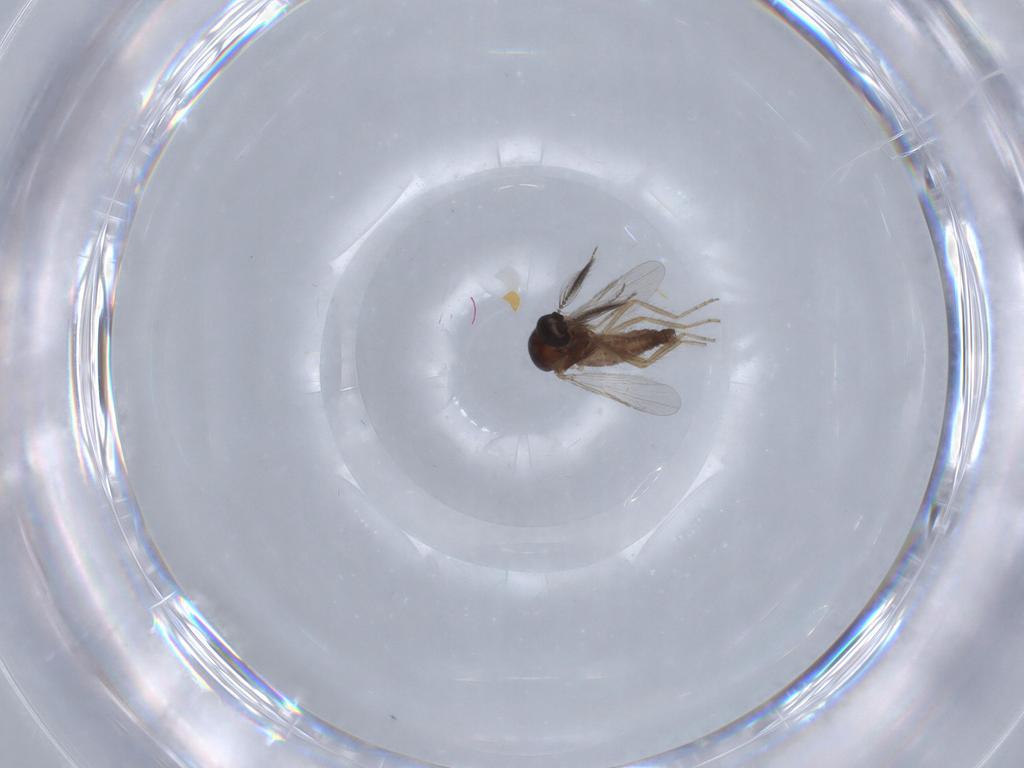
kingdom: Animalia
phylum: Arthropoda
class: Insecta
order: Diptera
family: Ceratopogonidae
